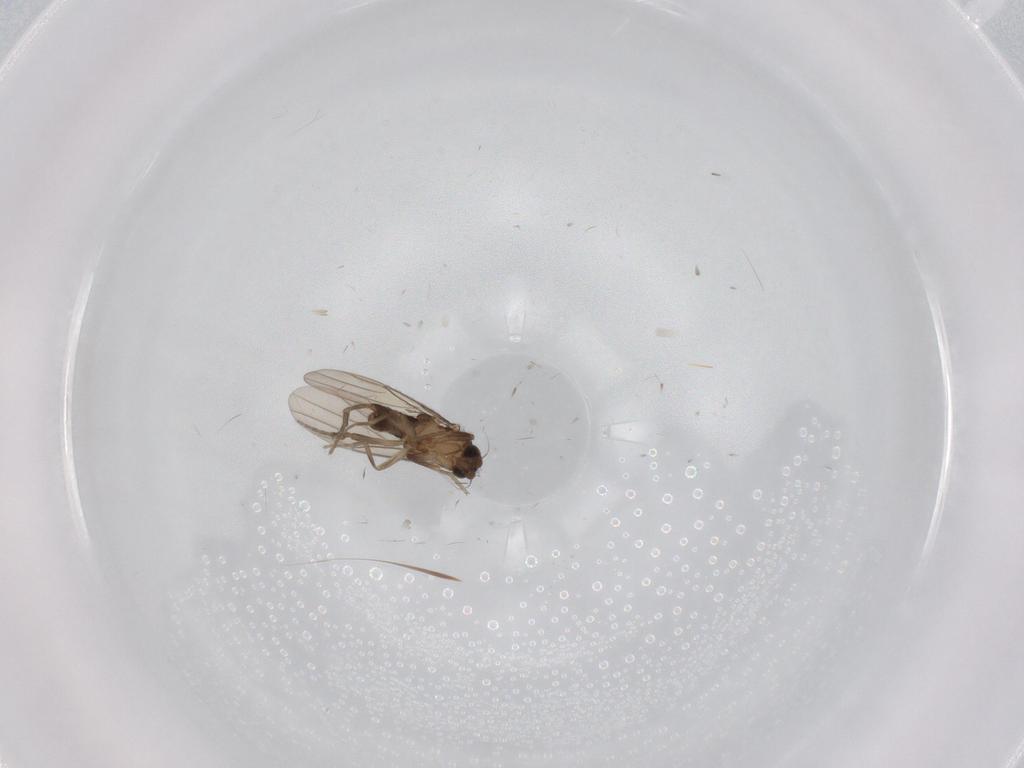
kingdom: Animalia
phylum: Arthropoda
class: Insecta
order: Diptera
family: Phoridae
